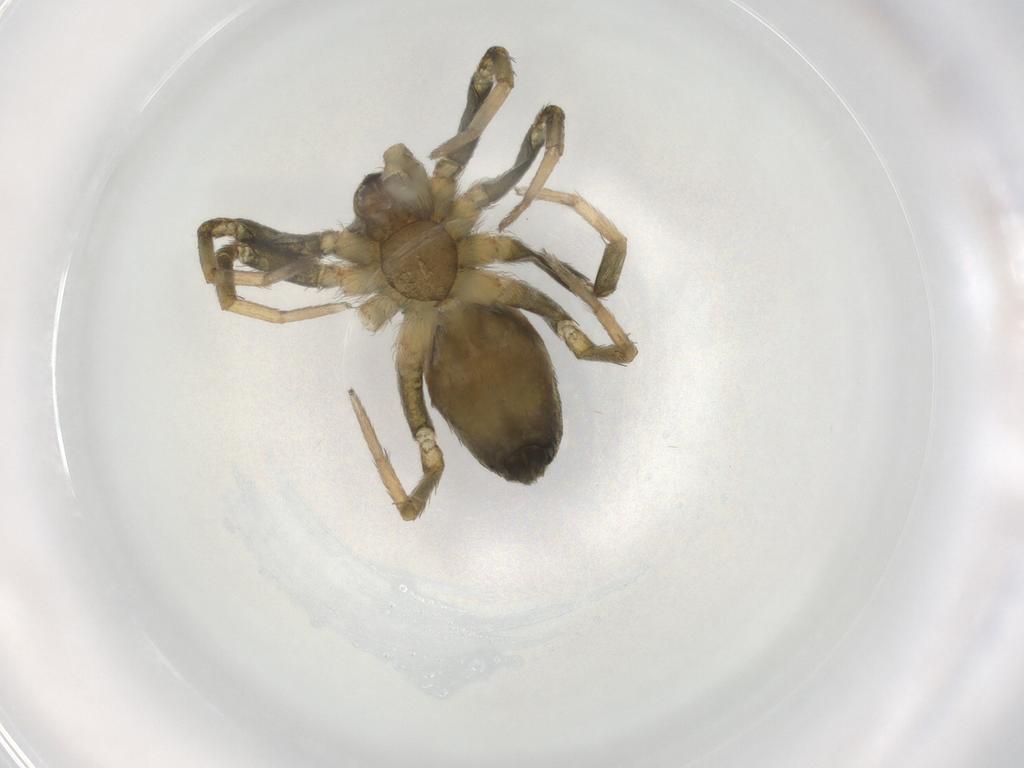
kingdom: Animalia
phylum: Arthropoda
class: Arachnida
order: Araneae
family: Anyphaenidae
